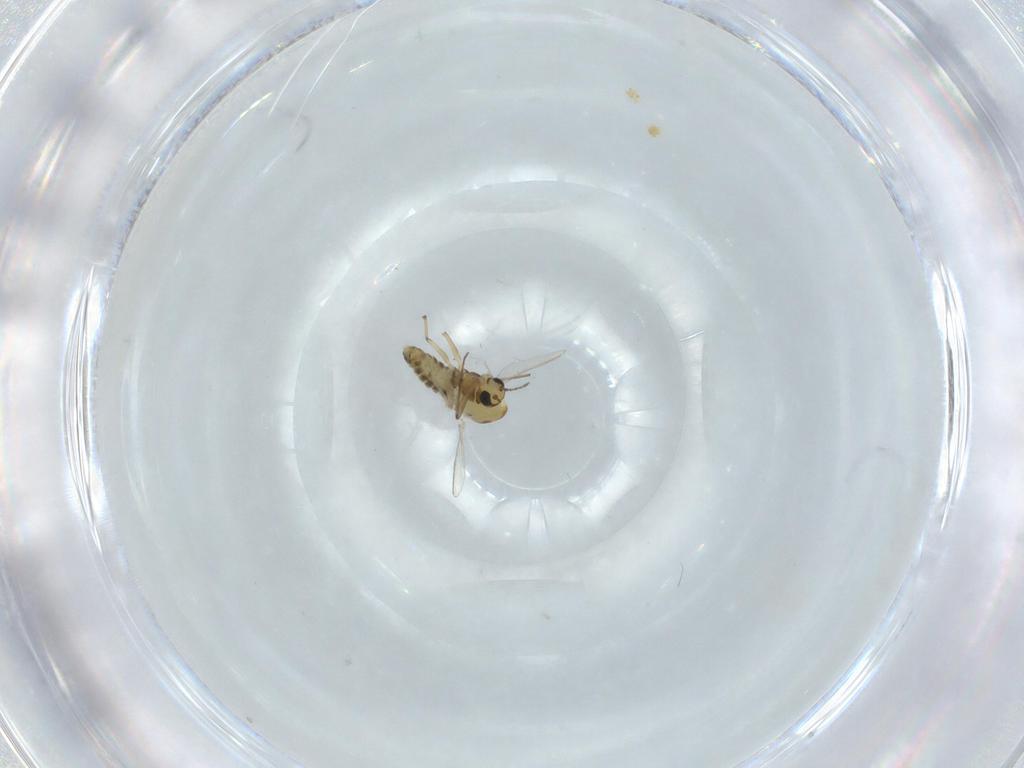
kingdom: Animalia
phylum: Arthropoda
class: Insecta
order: Diptera
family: Chironomidae
